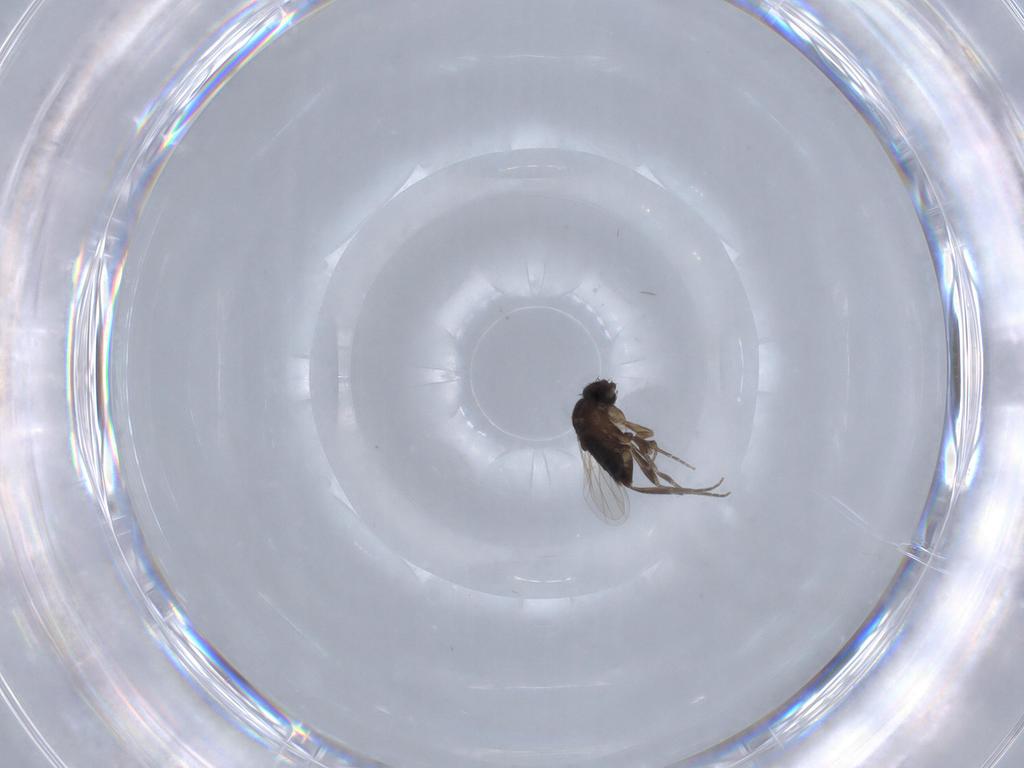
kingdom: Animalia
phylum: Arthropoda
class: Insecta
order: Diptera
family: Phoridae
